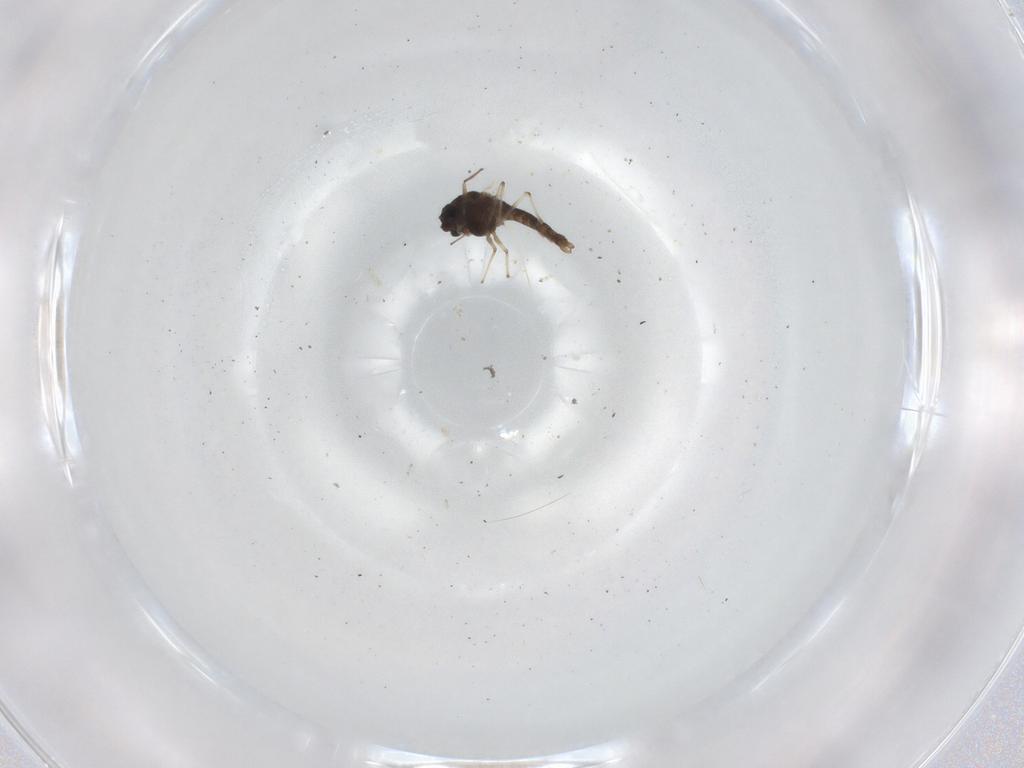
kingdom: Animalia
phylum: Arthropoda
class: Insecta
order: Diptera
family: Chironomidae
